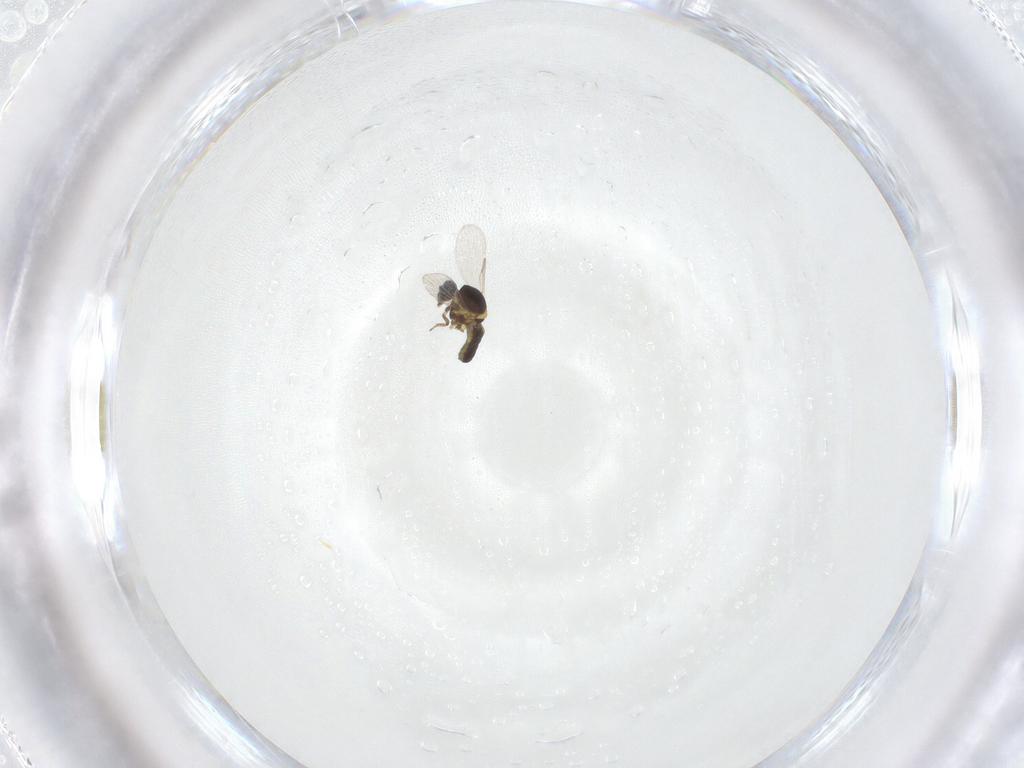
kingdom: Animalia
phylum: Arthropoda
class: Insecta
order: Diptera
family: Ceratopogonidae
